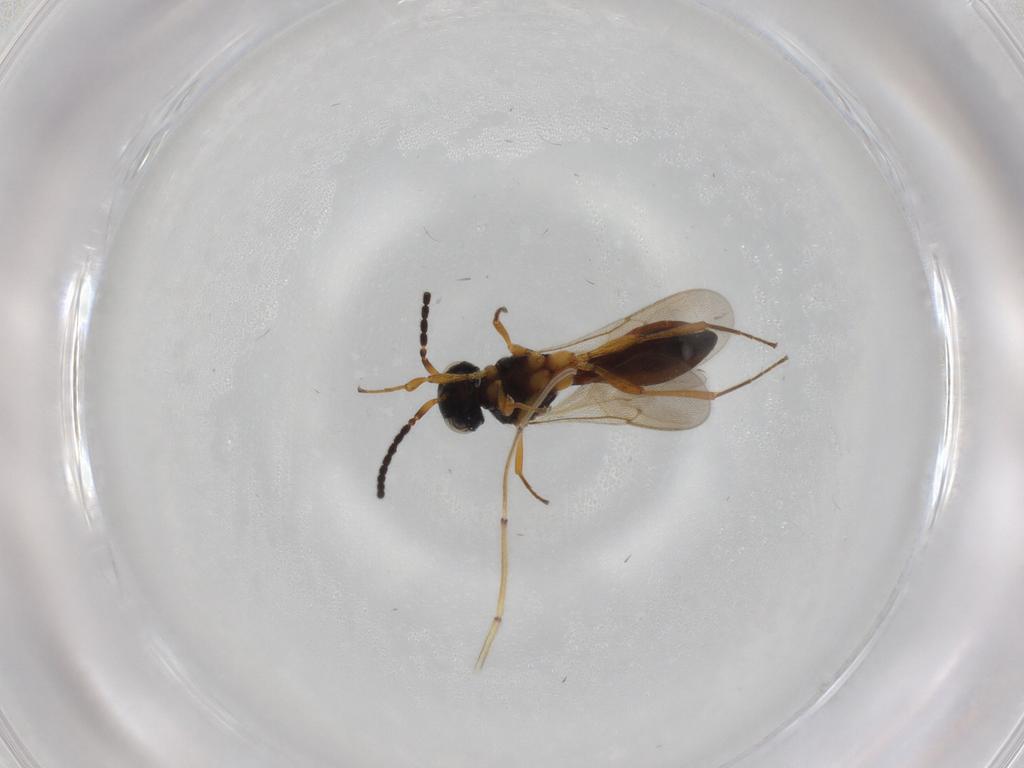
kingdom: Animalia
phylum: Arthropoda
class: Insecta
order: Hymenoptera
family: Scelionidae
